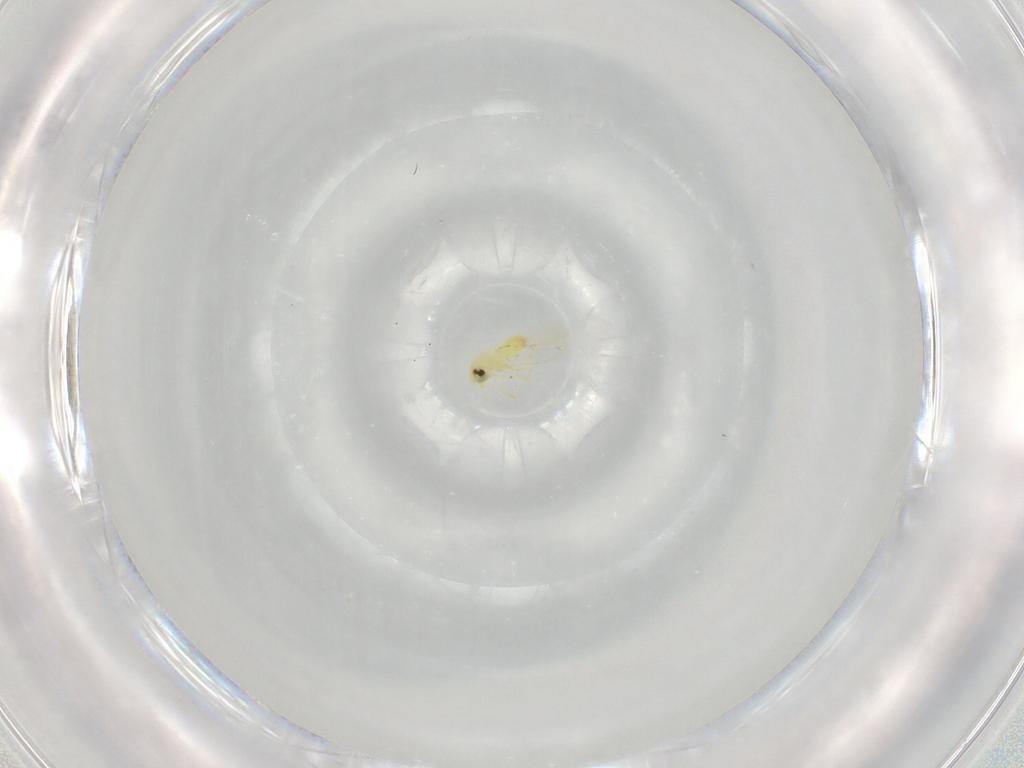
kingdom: Animalia
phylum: Arthropoda
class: Insecta
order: Hemiptera
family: Aleyrodidae
